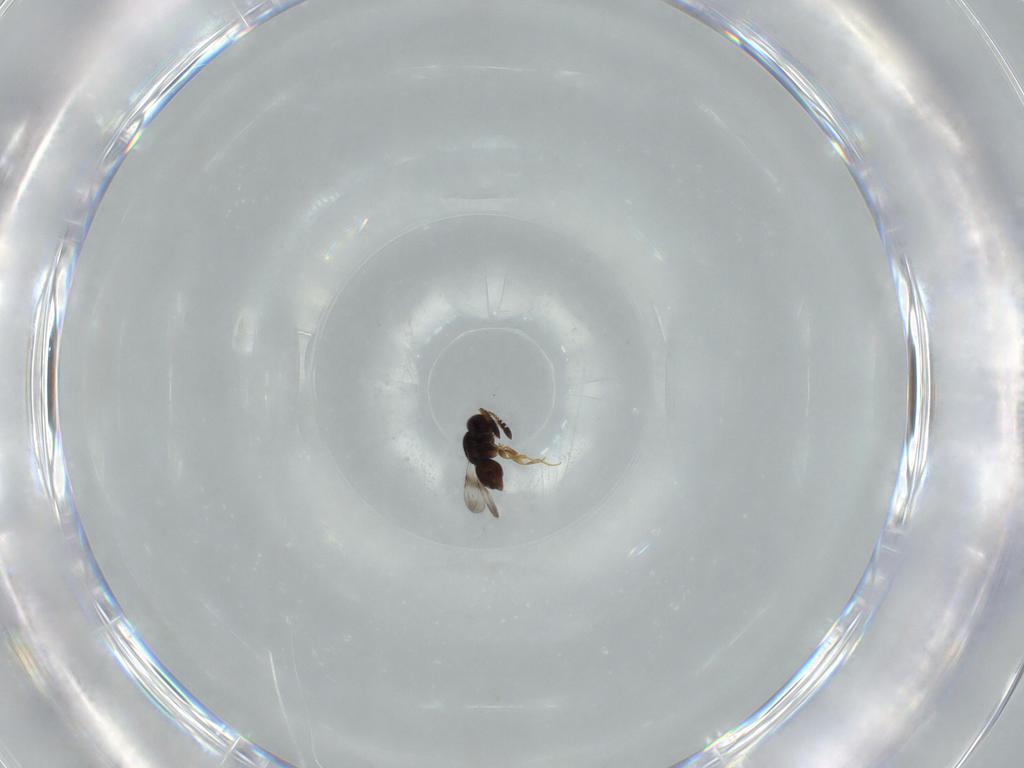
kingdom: Animalia
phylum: Arthropoda
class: Insecta
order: Hymenoptera
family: Ceraphronidae
